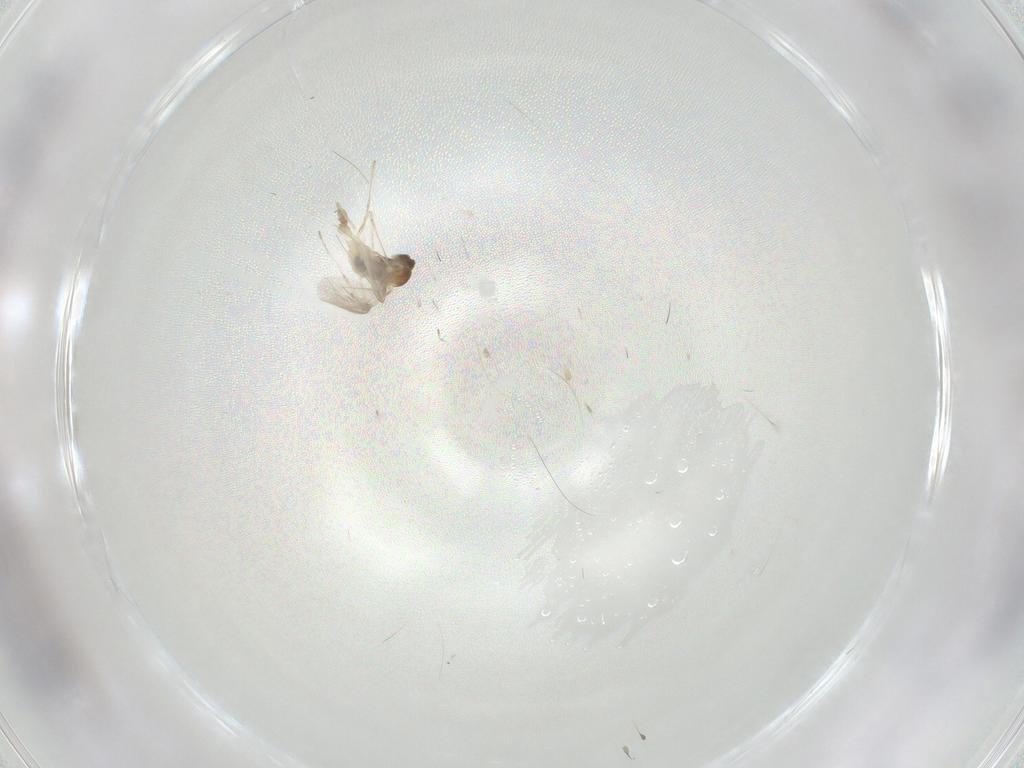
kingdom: Animalia
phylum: Arthropoda
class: Insecta
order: Diptera
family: Cecidomyiidae
